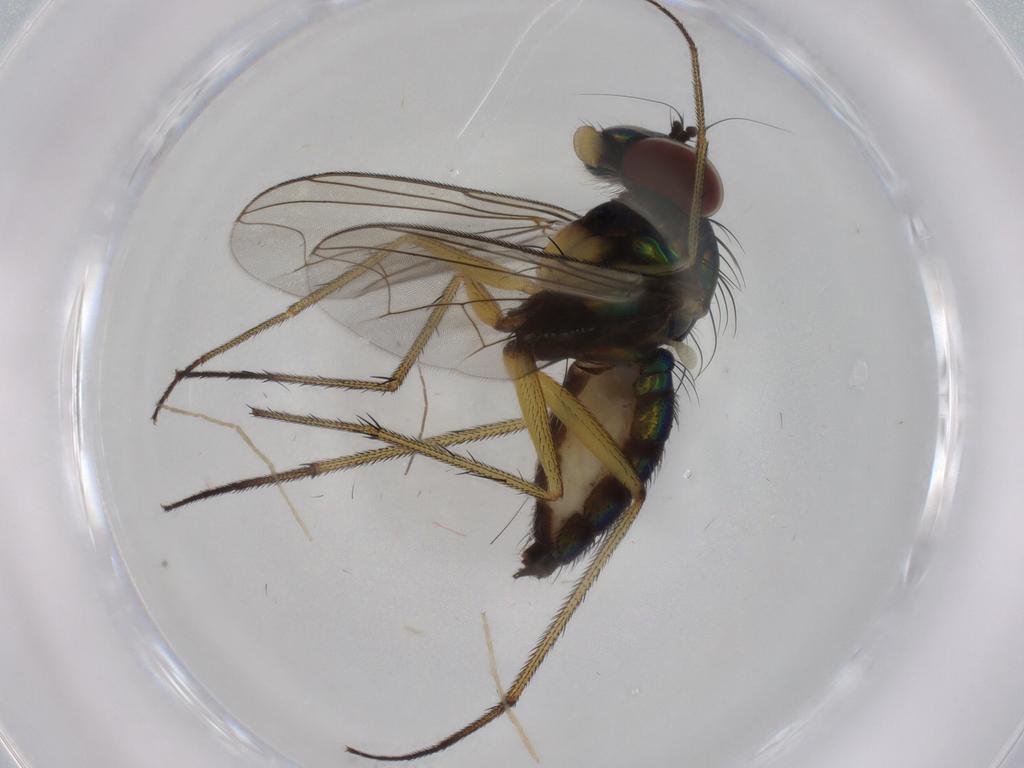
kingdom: Animalia
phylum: Arthropoda
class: Insecta
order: Diptera
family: Dolichopodidae
